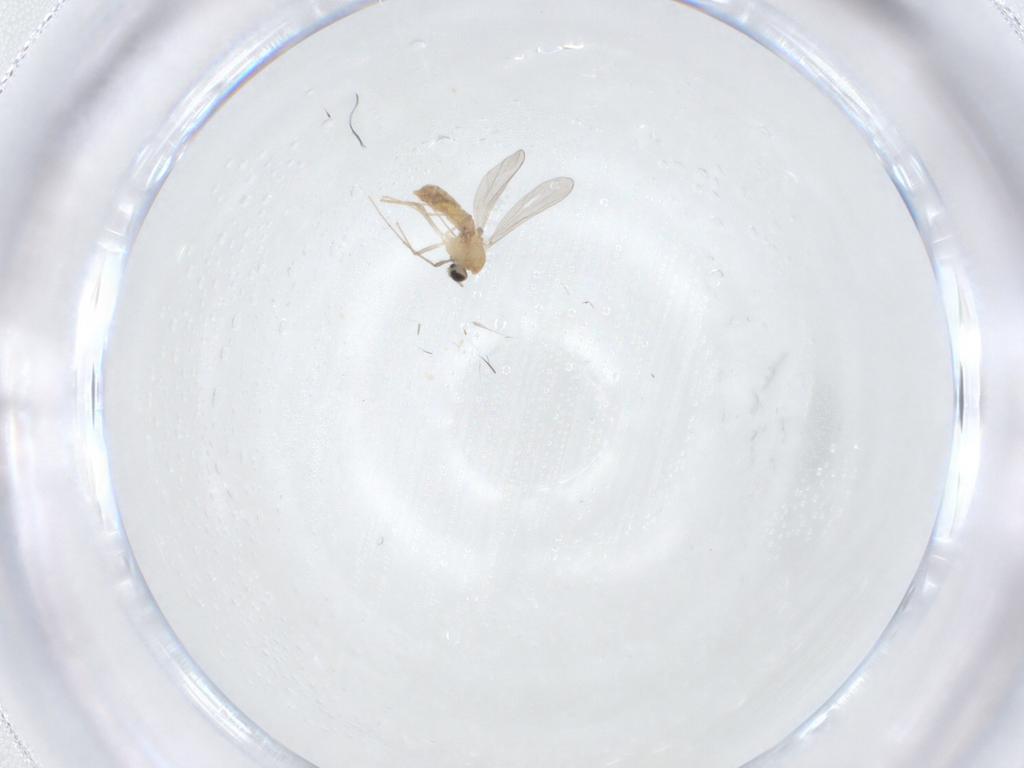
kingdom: Animalia
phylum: Arthropoda
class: Insecta
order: Diptera
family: Chironomidae
